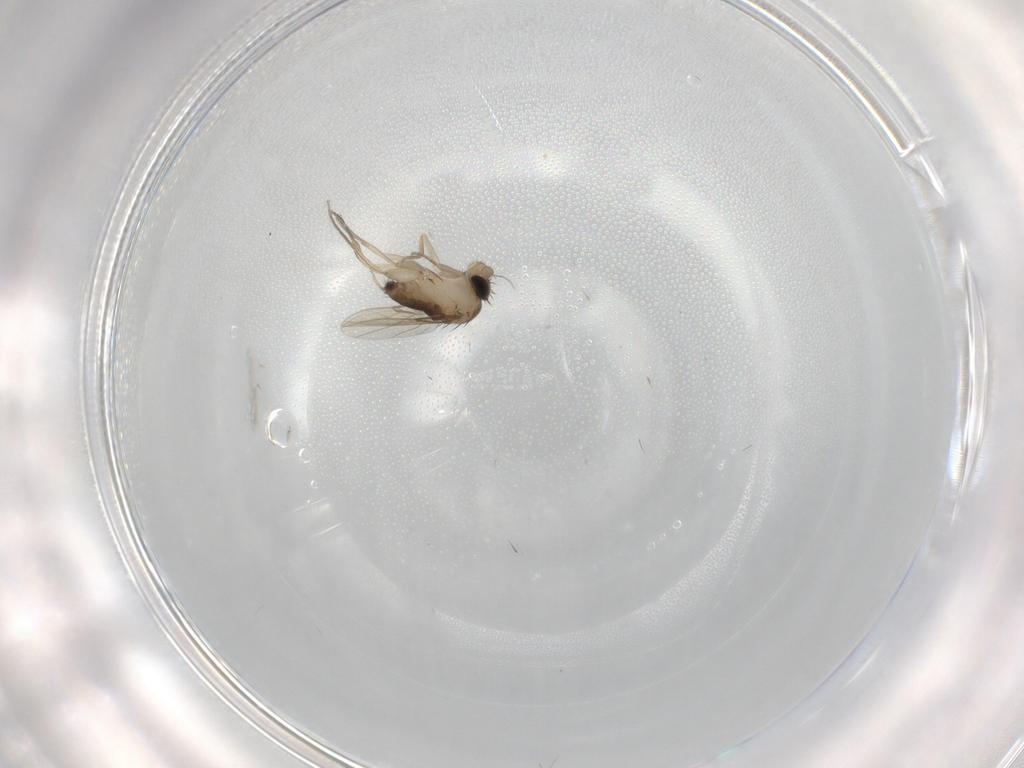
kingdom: Animalia
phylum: Arthropoda
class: Insecta
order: Diptera
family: Phoridae
